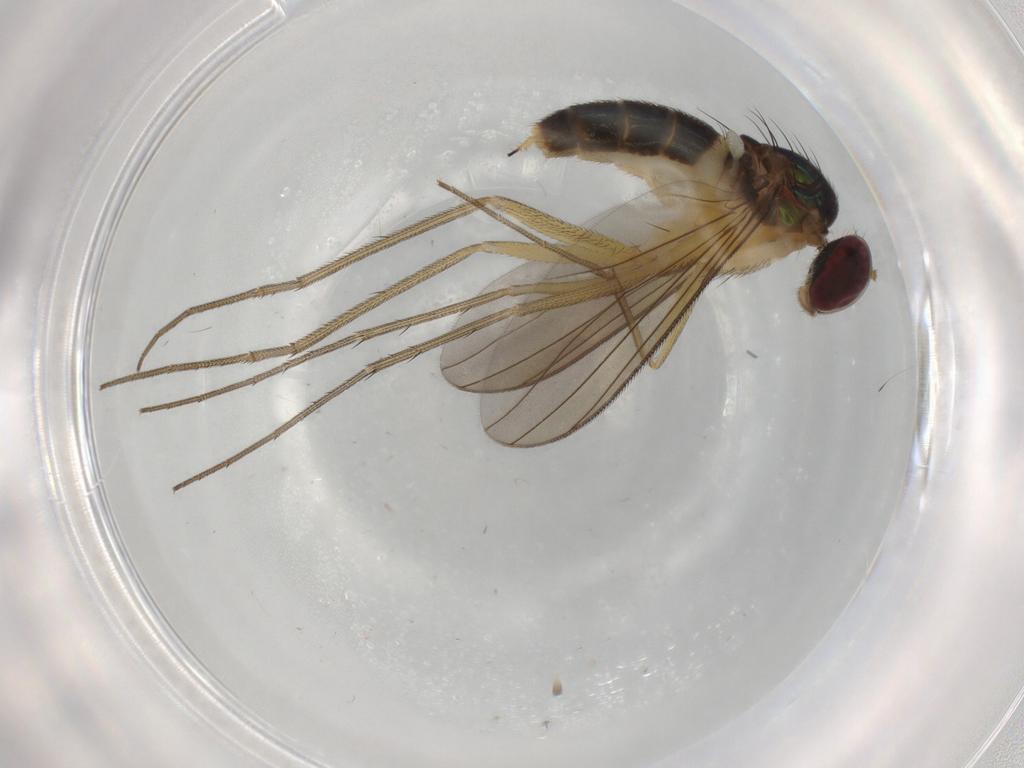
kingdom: Animalia
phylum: Arthropoda
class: Insecta
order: Diptera
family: Dolichopodidae
